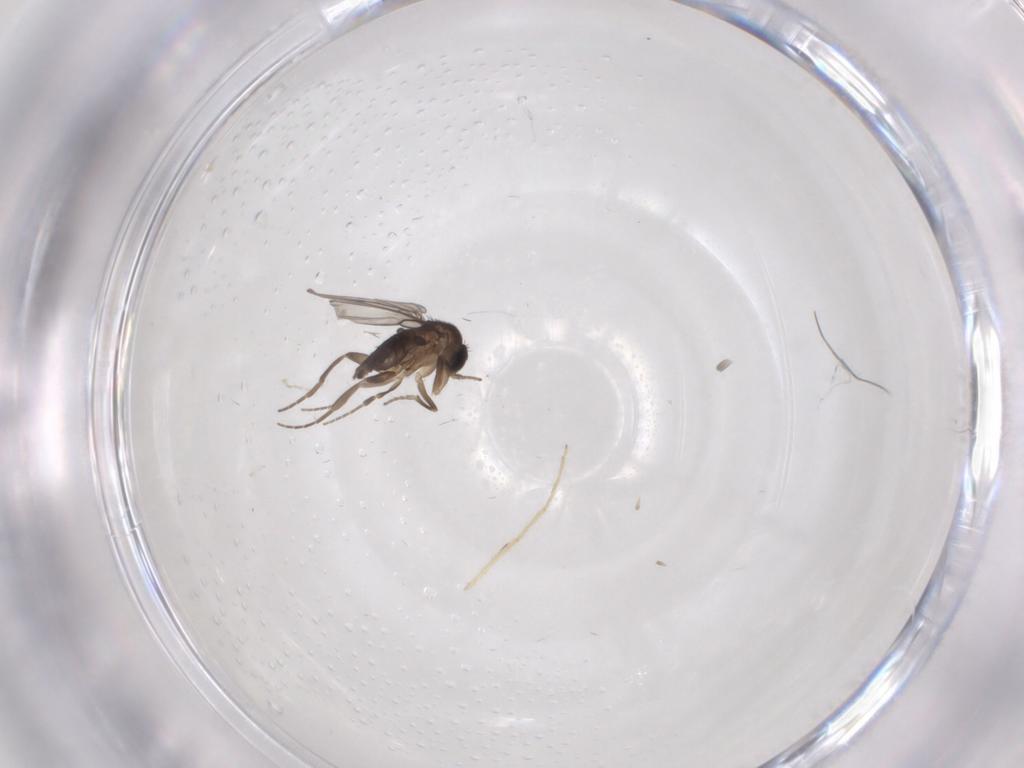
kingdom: Animalia
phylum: Arthropoda
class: Insecta
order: Diptera
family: Chironomidae
